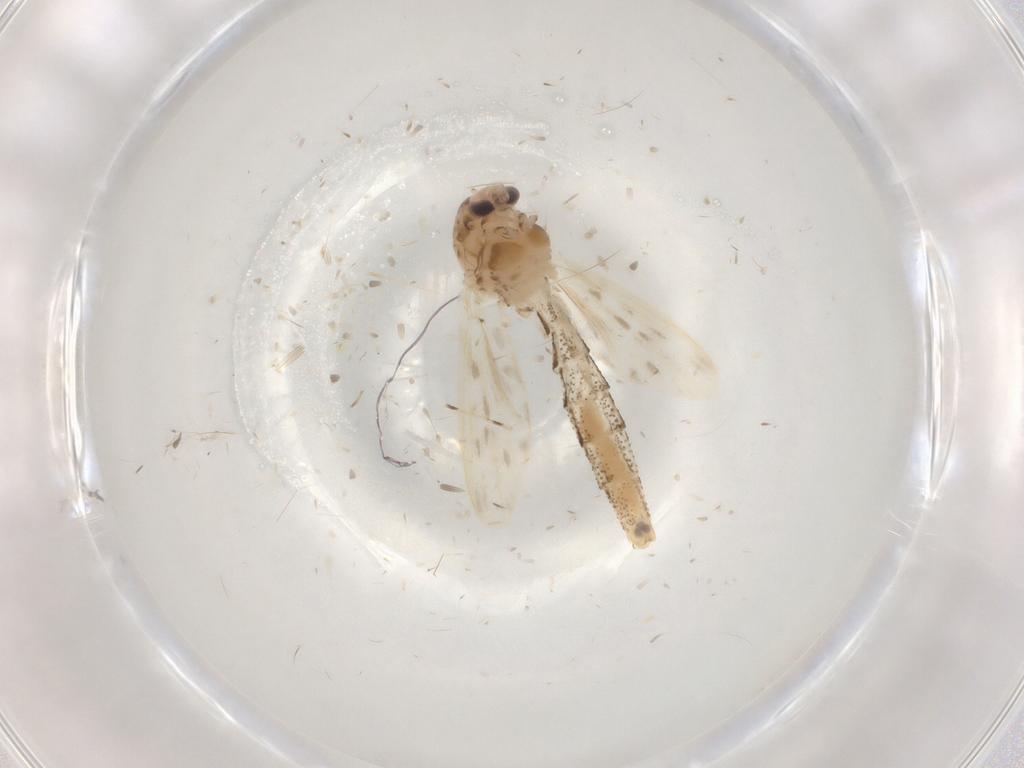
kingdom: Animalia
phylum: Arthropoda
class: Insecta
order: Diptera
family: Chaoboridae
